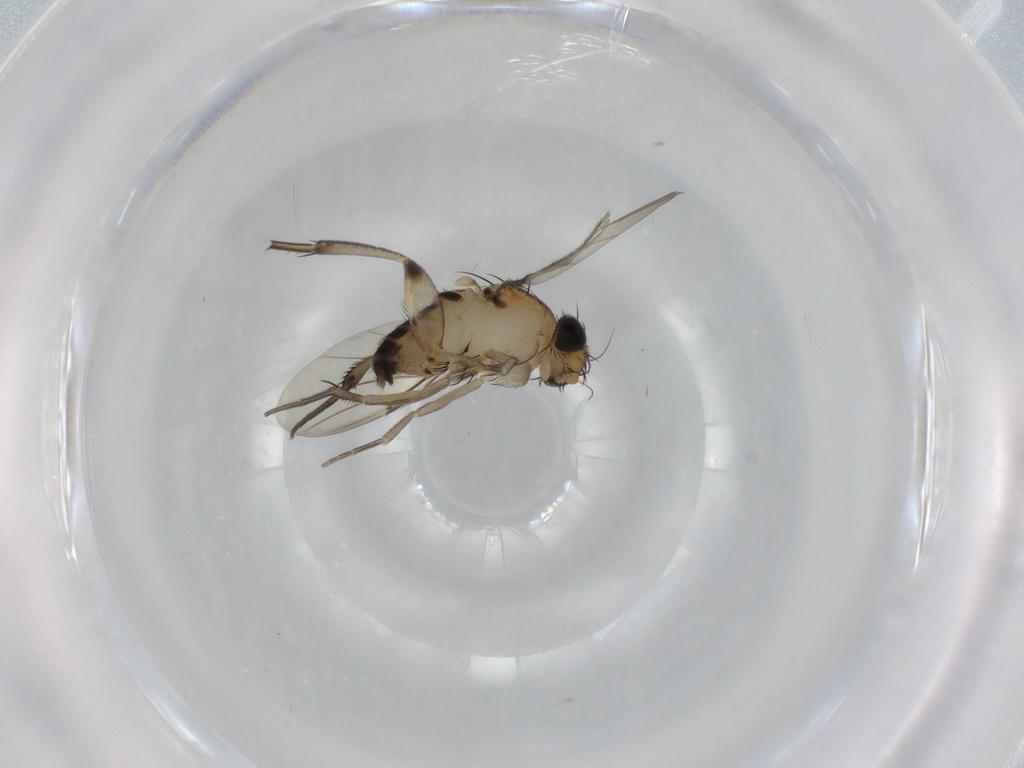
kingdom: Animalia
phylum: Arthropoda
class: Insecta
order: Diptera
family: Phoridae
